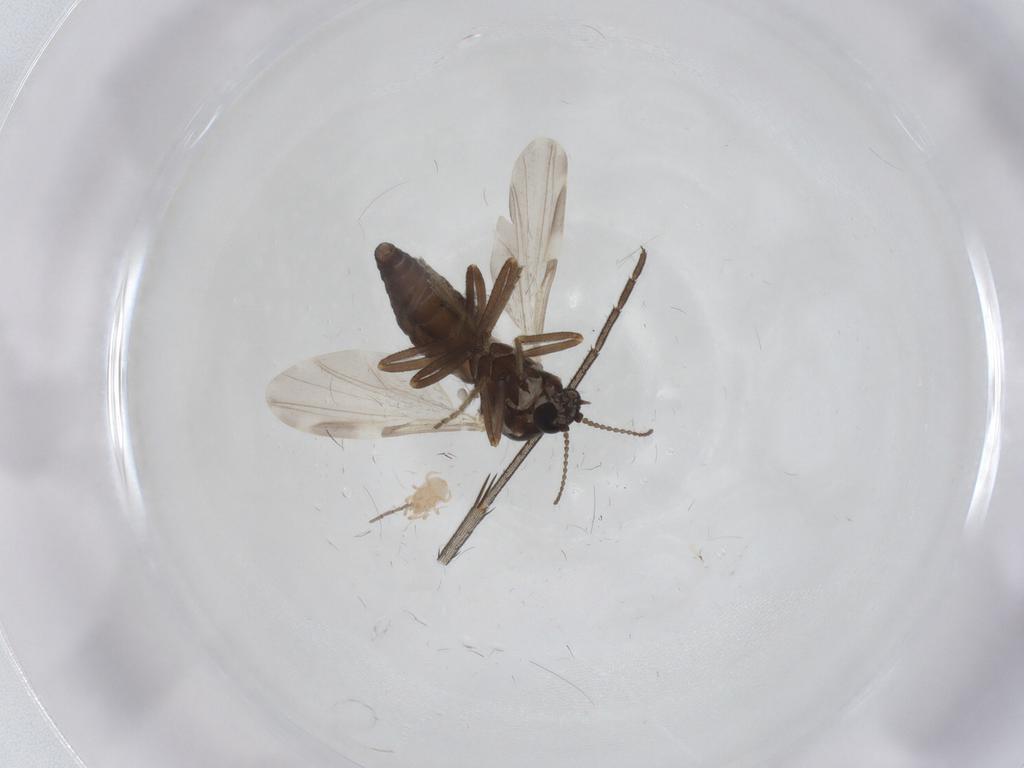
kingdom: Animalia
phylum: Arthropoda
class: Insecta
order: Diptera
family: Ceratopogonidae
